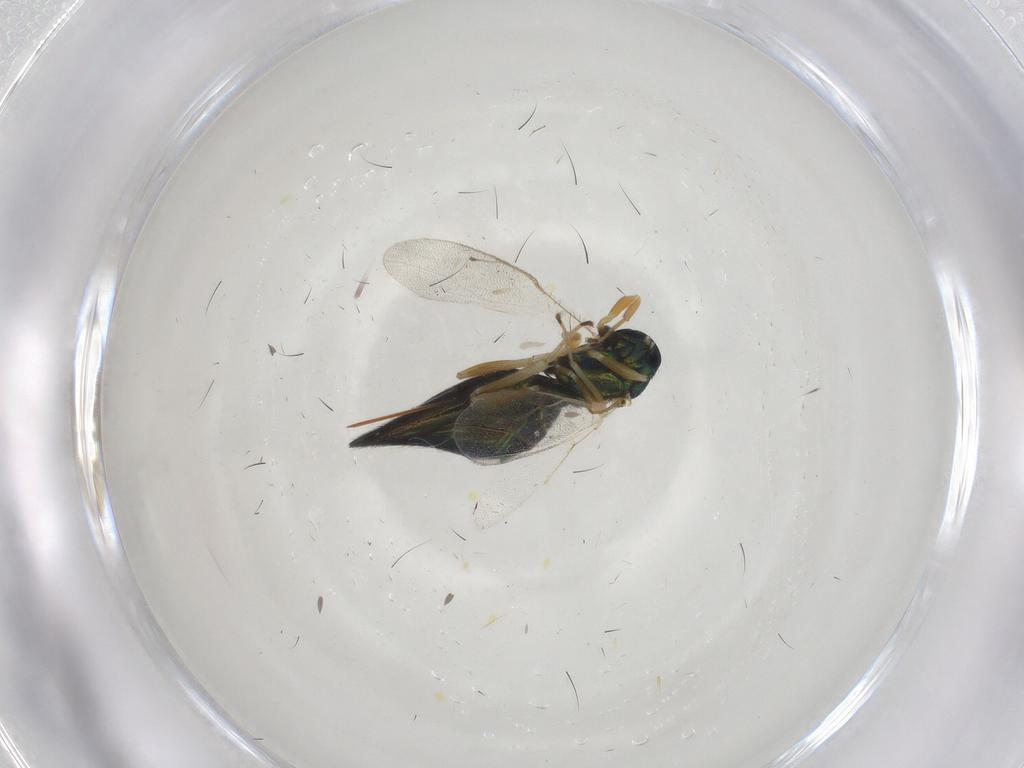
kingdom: Animalia
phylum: Arthropoda
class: Insecta
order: Hymenoptera
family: Pteromalidae
